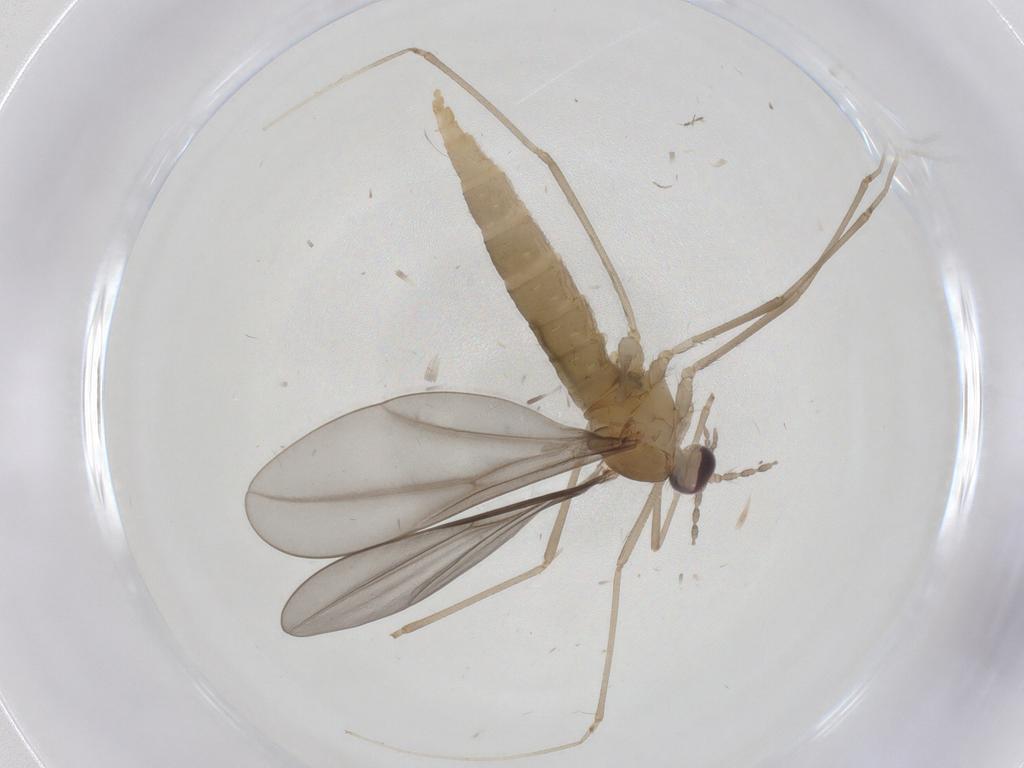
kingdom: Animalia
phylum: Arthropoda
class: Insecta
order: Diptera
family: Cecidomyiidae
